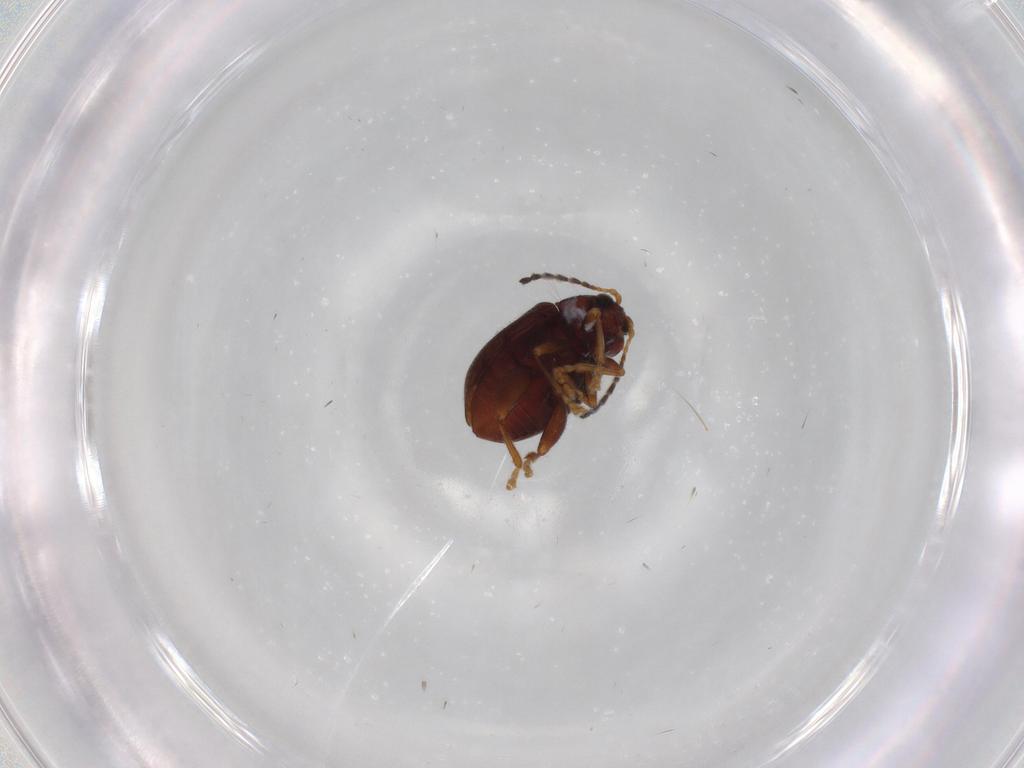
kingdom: Animalia
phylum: Arthropoda
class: Insecta
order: Coleoptera
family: Chrysomelidae
